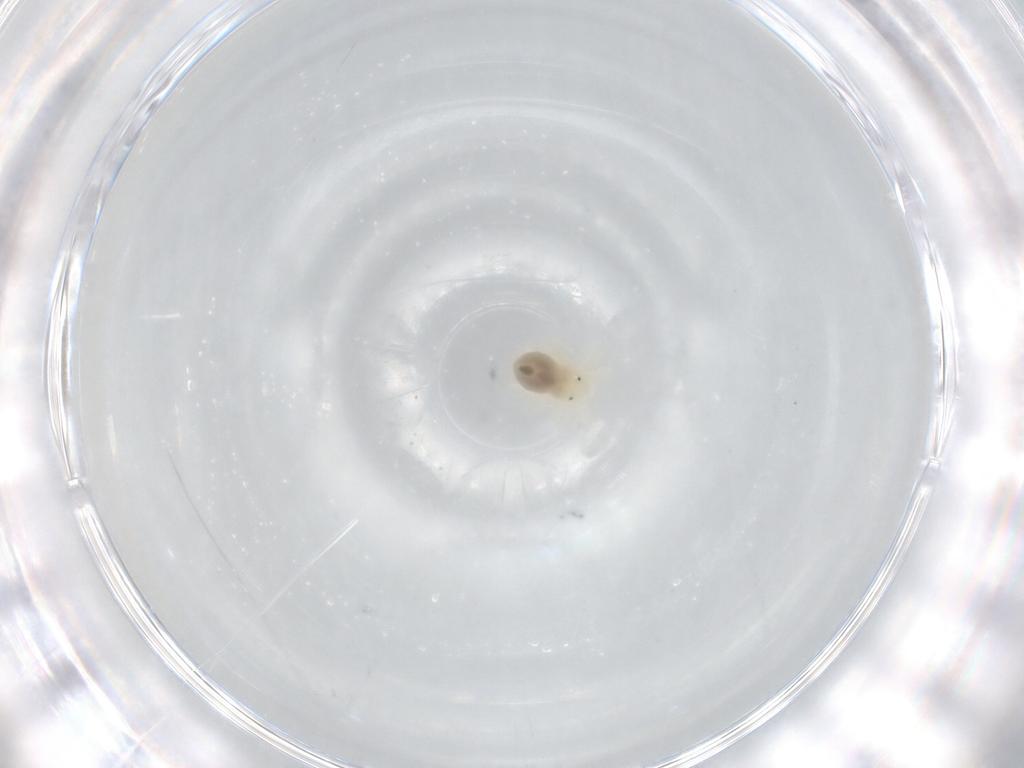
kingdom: Animalia
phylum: Arthropoda
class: Arachnida
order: Trombidiformes
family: Anystidae
